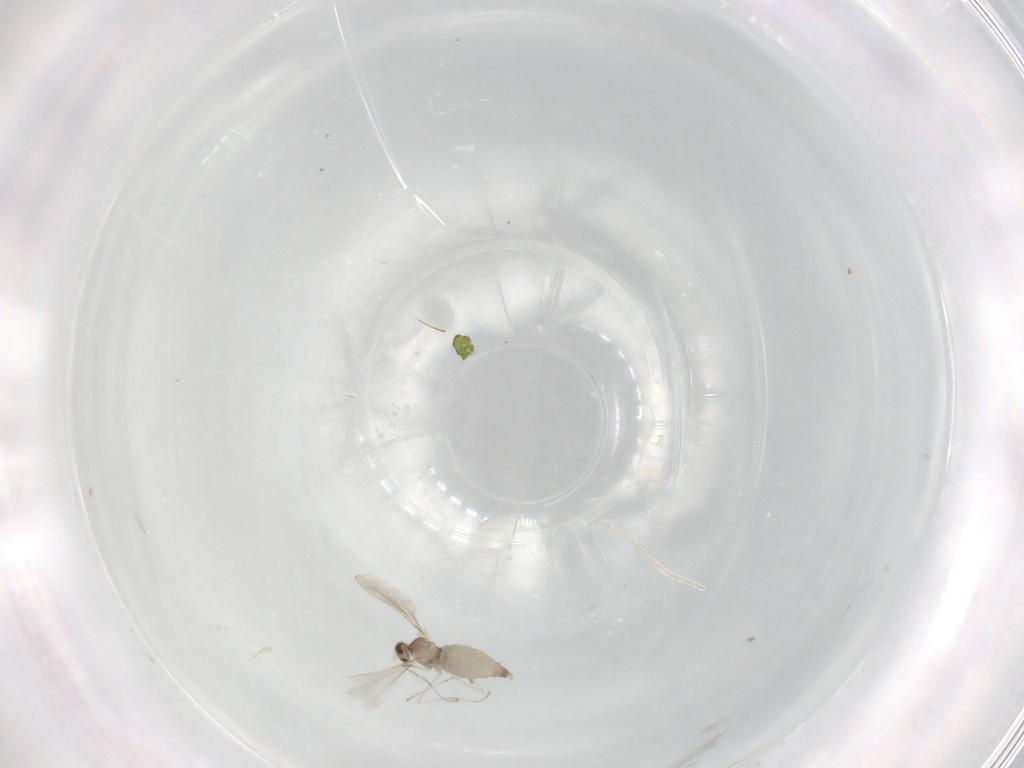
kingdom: Animalia
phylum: Arthropoda
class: Insecta
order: Diptera
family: Cecidomyiidae
